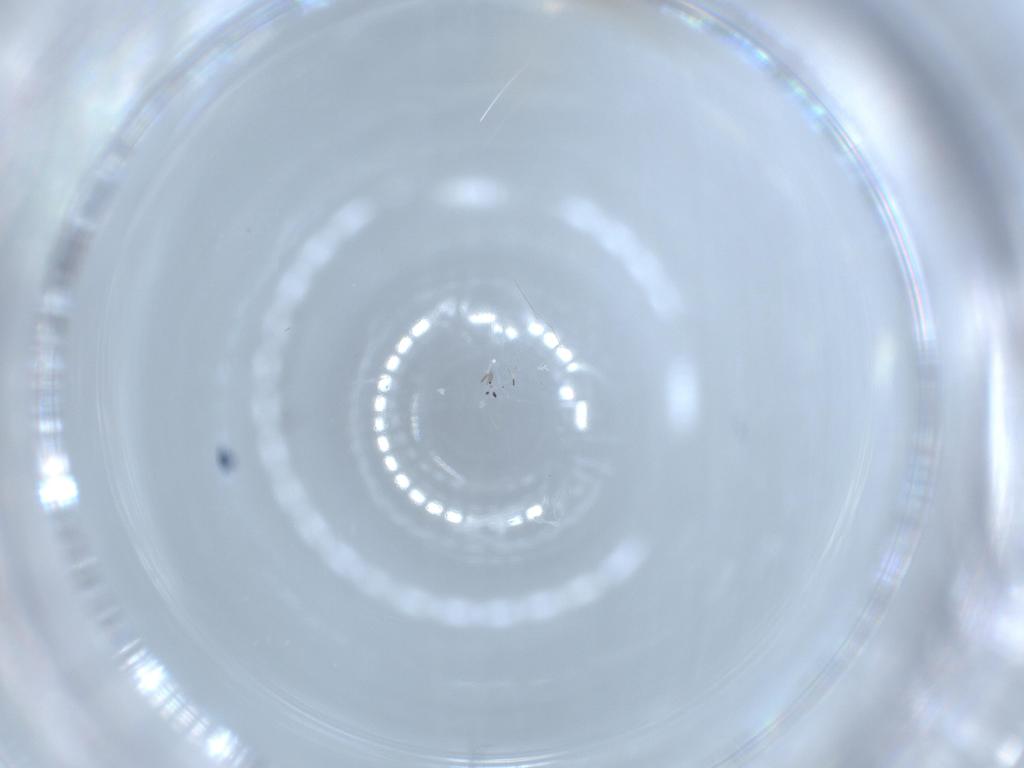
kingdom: Animalia
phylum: Arthropoda
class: Insecta
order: Diptera
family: Psychodidae
